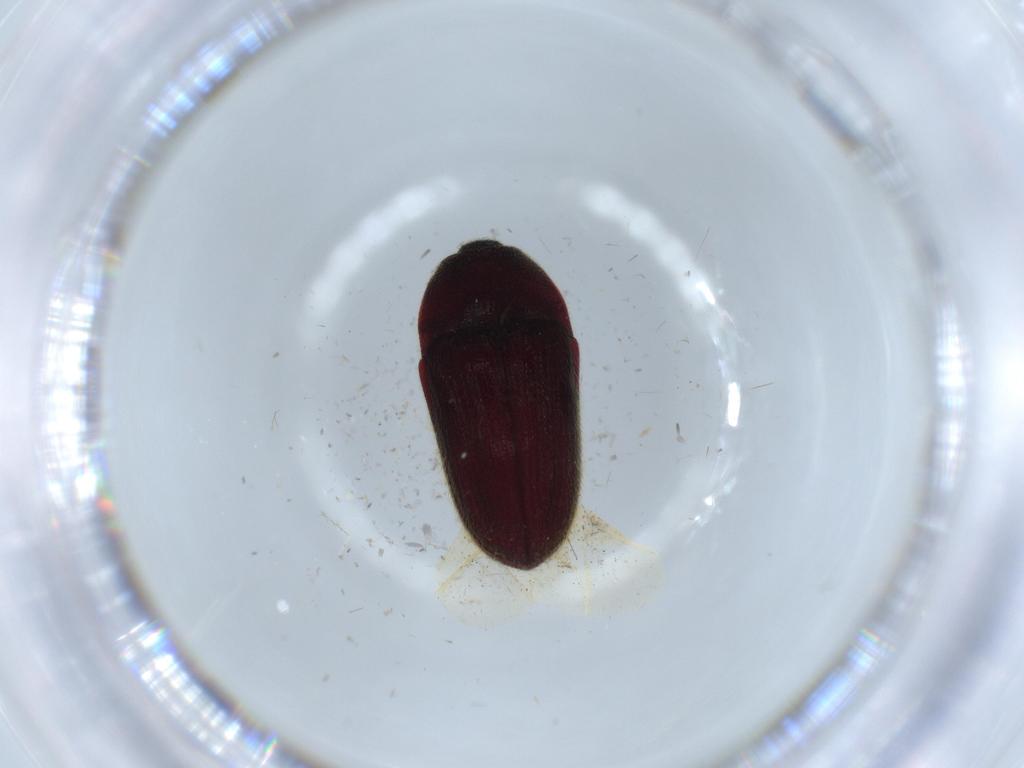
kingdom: Animalia
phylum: Arthropoda
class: Insecta
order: Coleoptera
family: Throscidae
